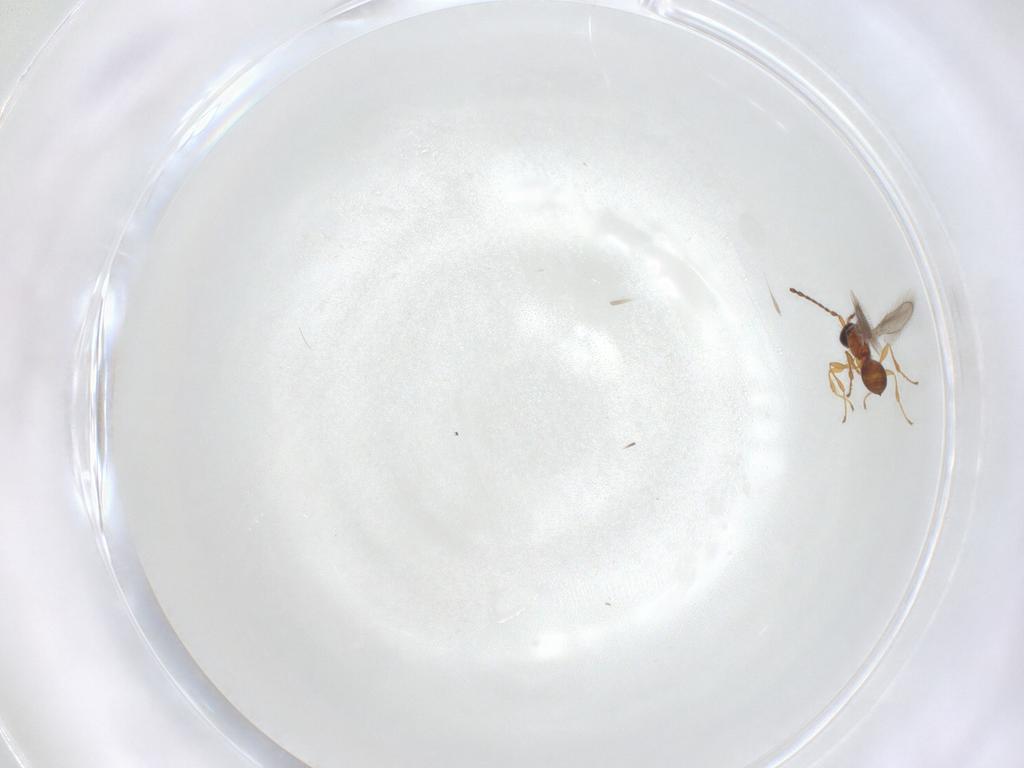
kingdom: Animalia
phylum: Arthropoda
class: Insecta
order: Hymenoptera
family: Diapriidae
